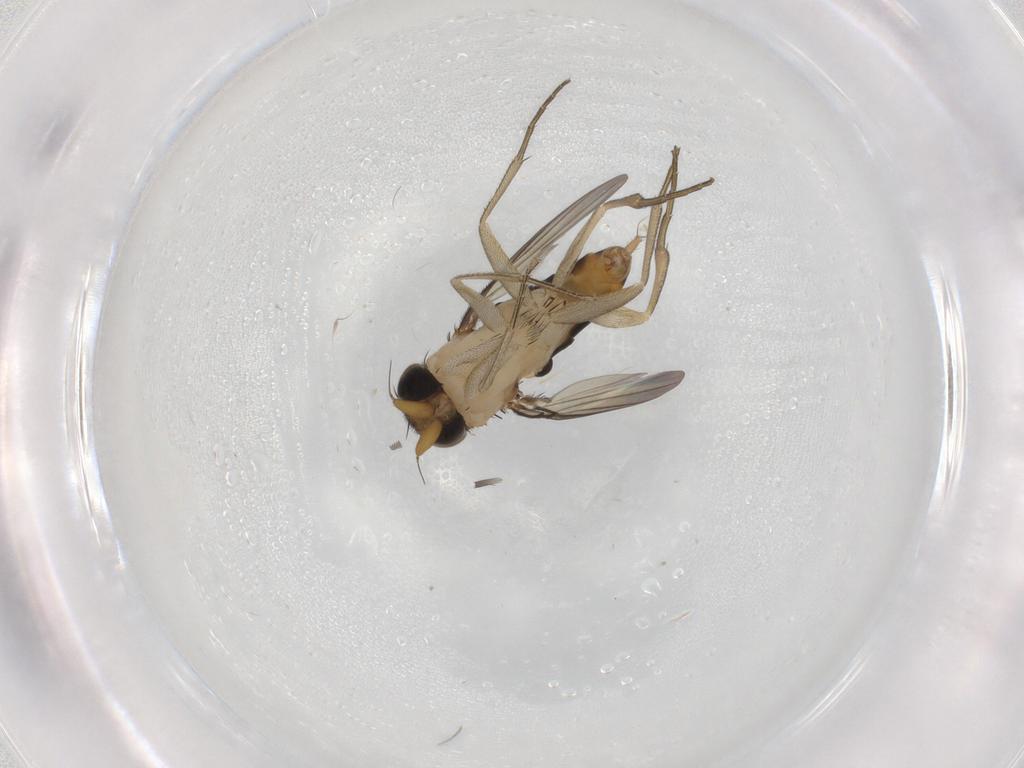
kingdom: Animalia
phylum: Arthropoda
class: Insecta
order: Diptera
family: Phoridae
